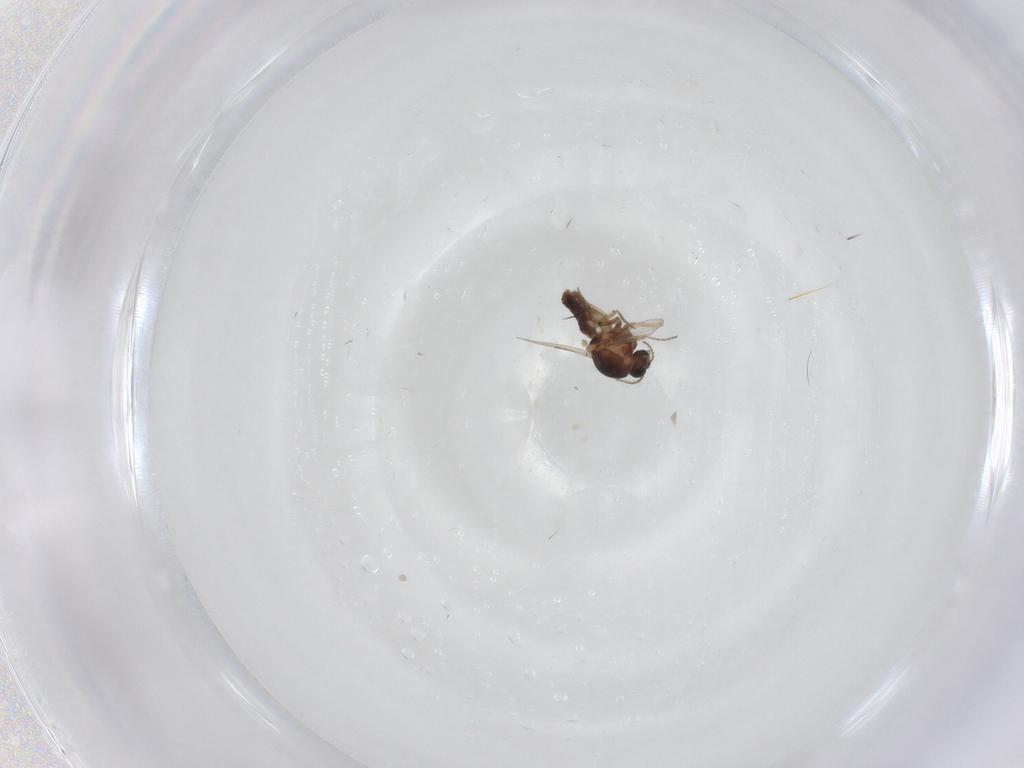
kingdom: Animalia
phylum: Arthropoda
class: Insecta
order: Diptera
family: Ceratopogonidae
